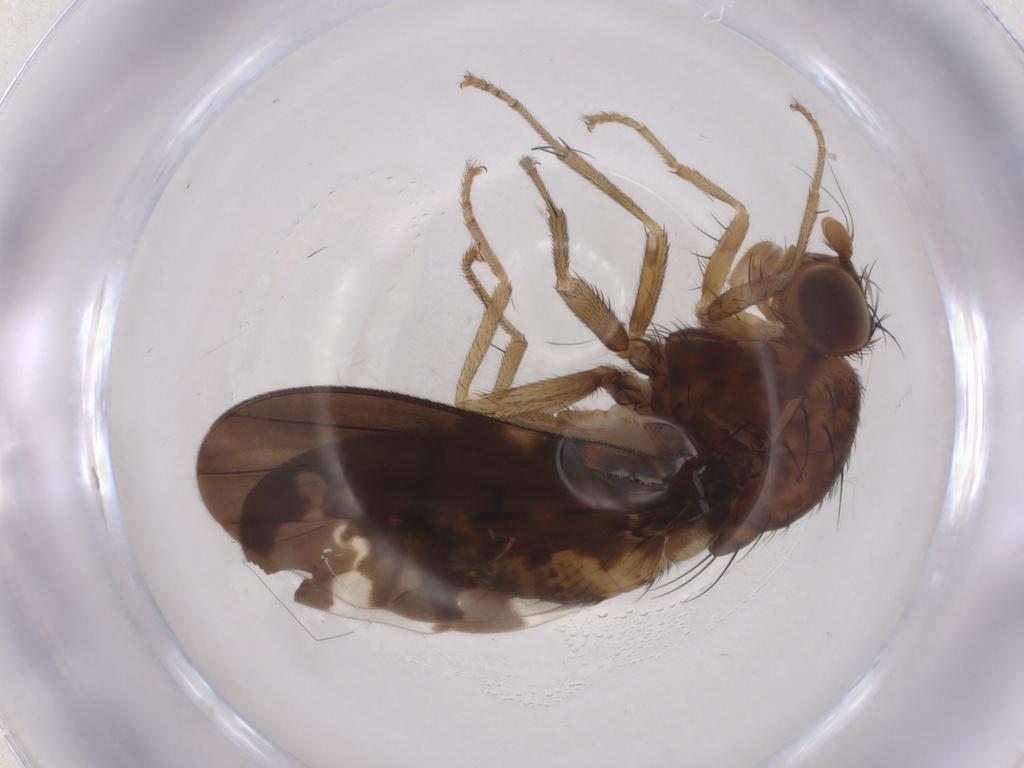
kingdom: Animalia
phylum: Arthropoda
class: Insecta
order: Diptera
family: Lauxaniidae
